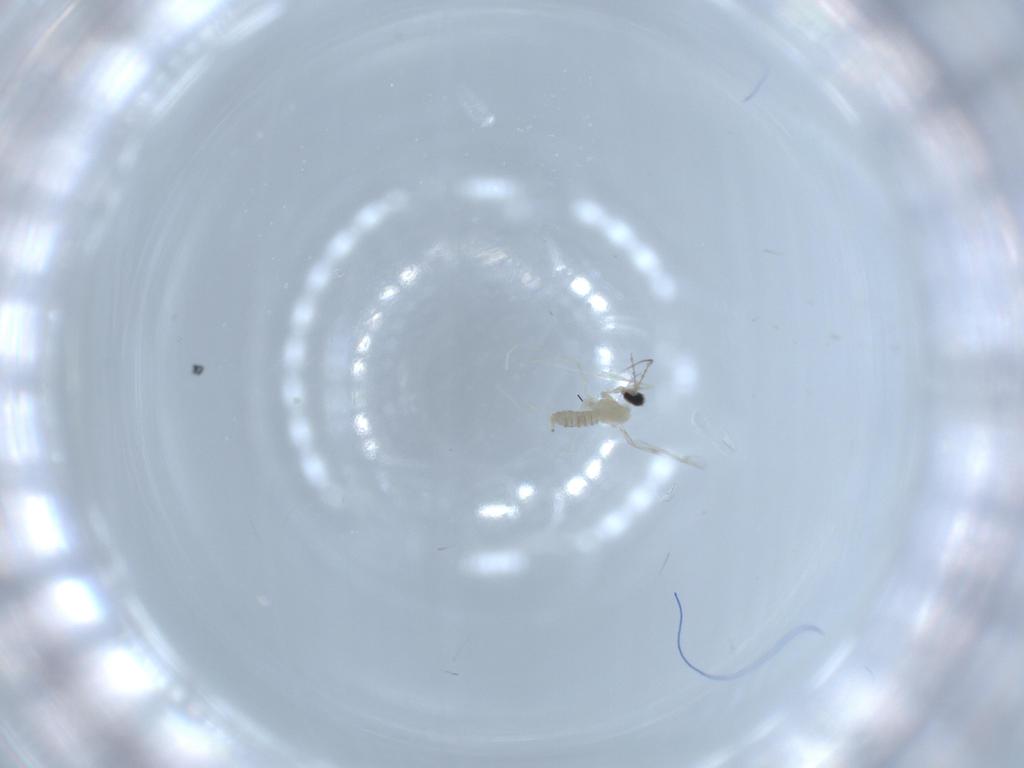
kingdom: Animalia
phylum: Arthropoda
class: Insecta
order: Diptera
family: Cecidomyiidae
